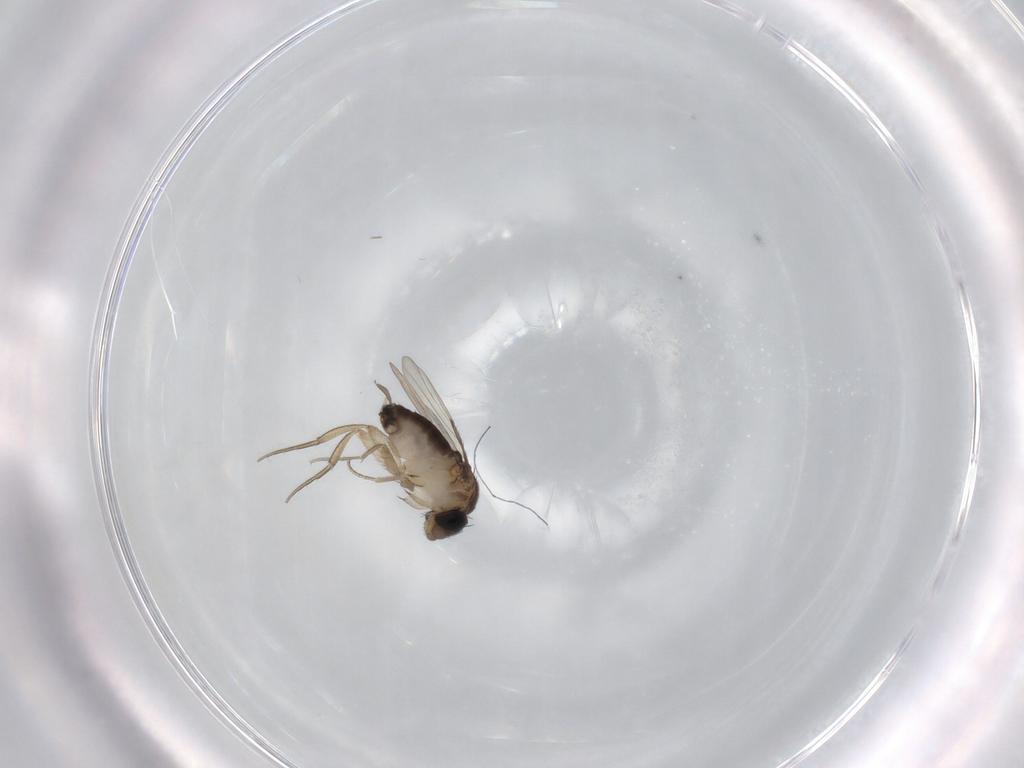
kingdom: Animalia
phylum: Arthropoda
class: Insecta
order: Diptera
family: Cecidomyiidae
